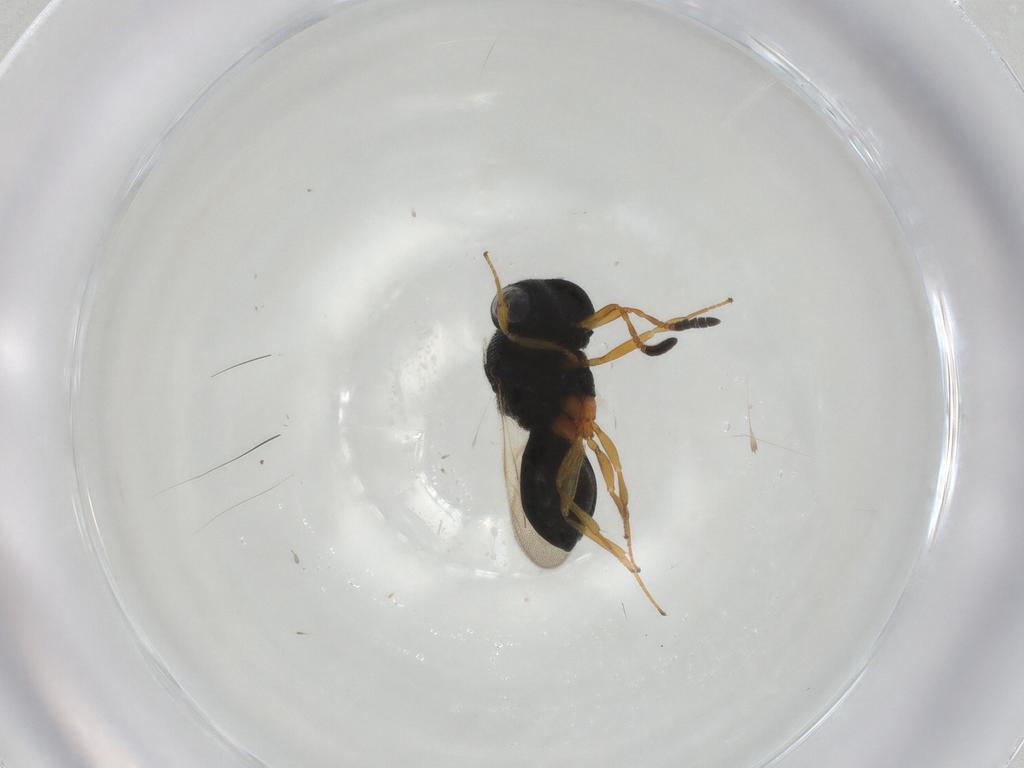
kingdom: Animalia
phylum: Arthropoda
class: Insecta
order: Hymenoptera
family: Scelionidae
